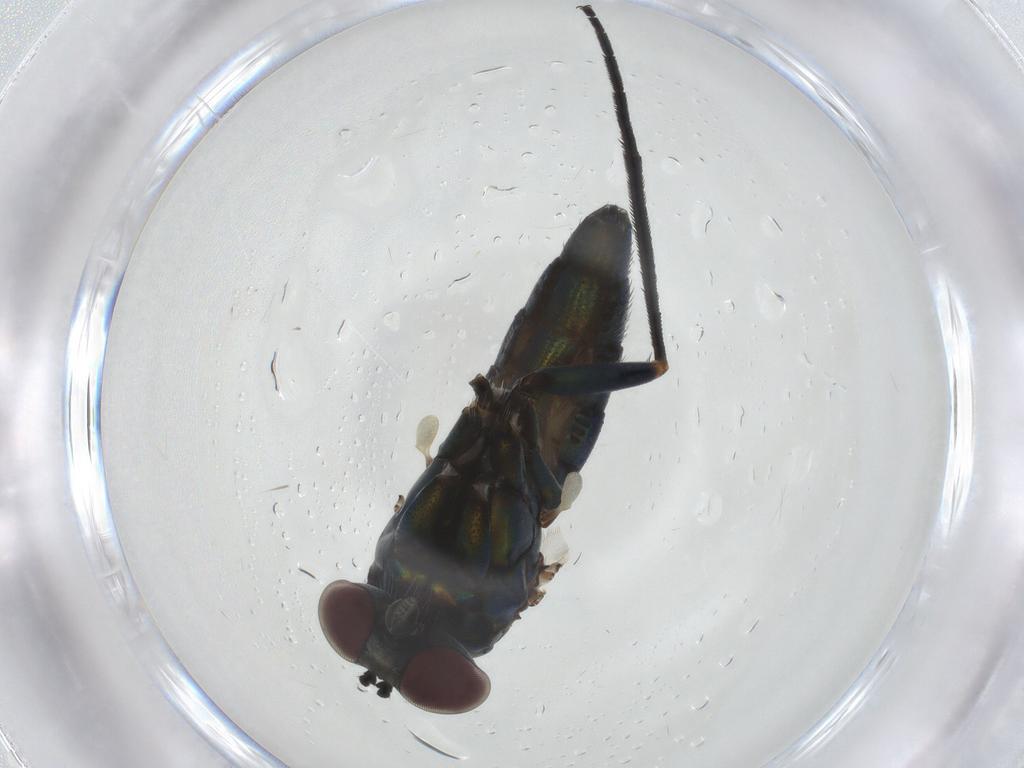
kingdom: Animalia
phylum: Arthropoda
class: Insecta
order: Diptera
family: Dolichopodidae
